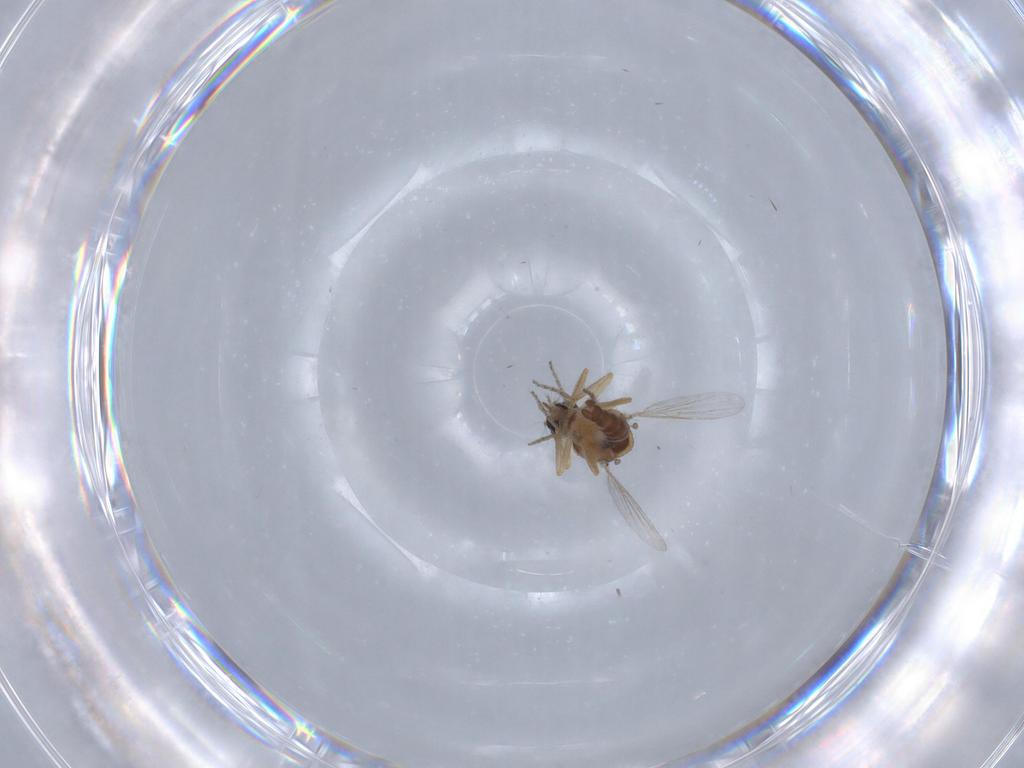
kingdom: Animalia
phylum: Arthropoda
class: Insecta
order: Diptera
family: Ceratopogonidae
